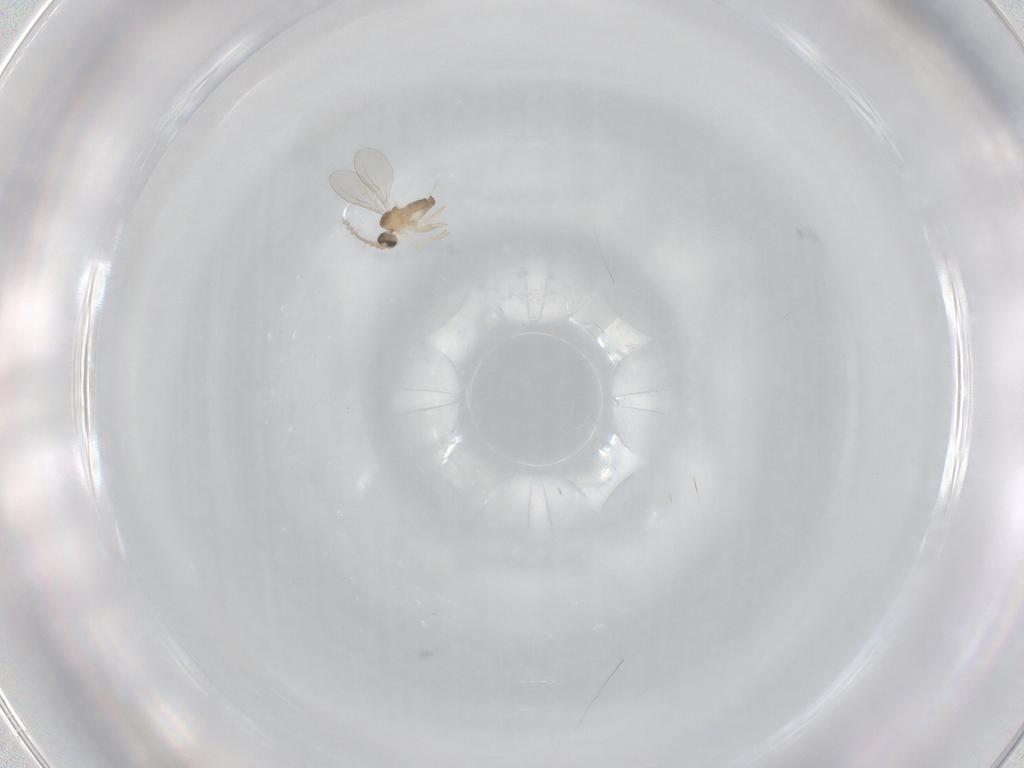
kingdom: Animalia
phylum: Arthropoda
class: Insecta
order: Diptera
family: Cecidomyiidae
